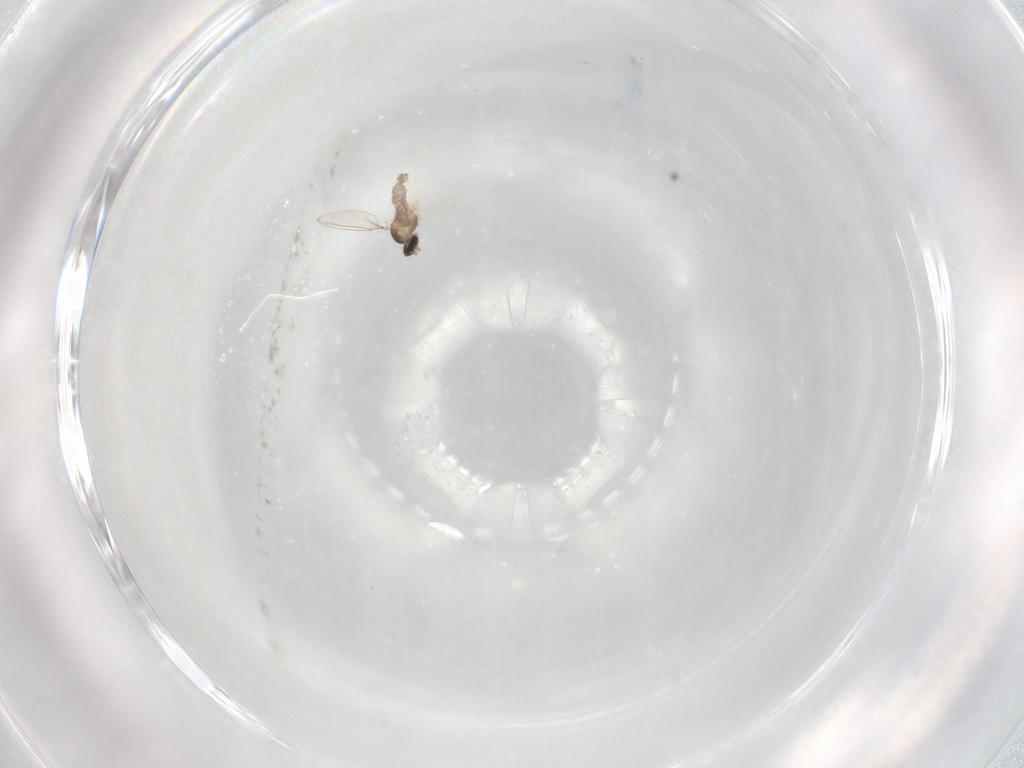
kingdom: Animalia
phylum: Arthropoda
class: Insecta
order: Diptera
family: Cecidomyiidae
